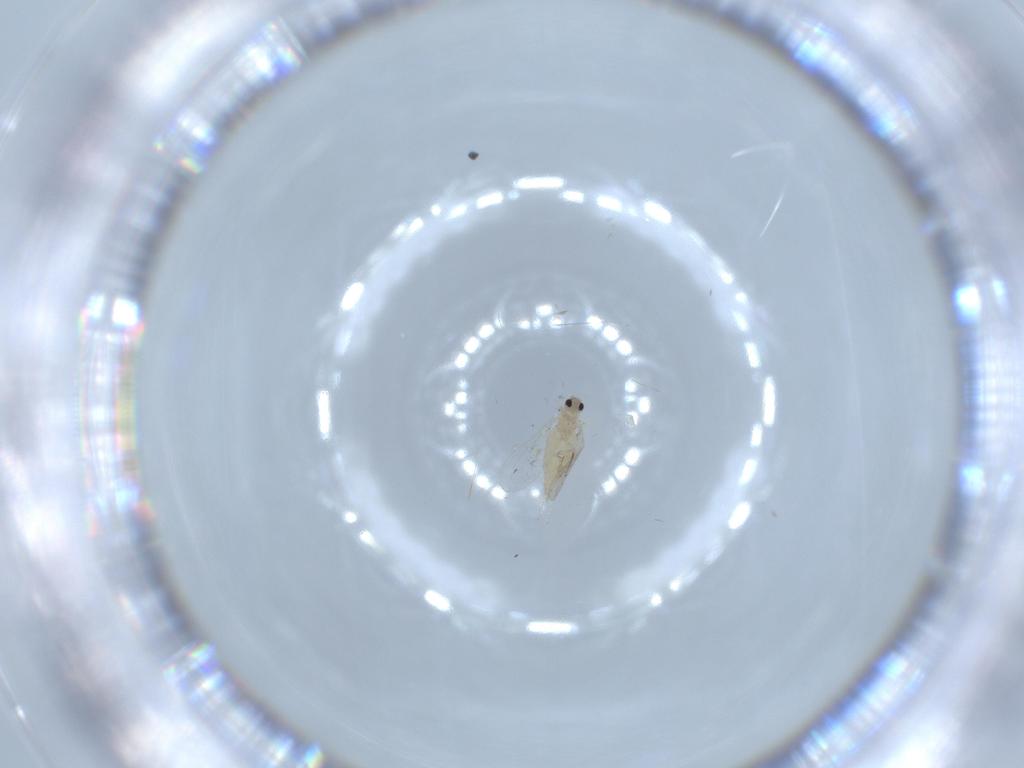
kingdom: Animalia
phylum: Arthropoda
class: Insecta
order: Diptera
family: Cecidomyiidae
